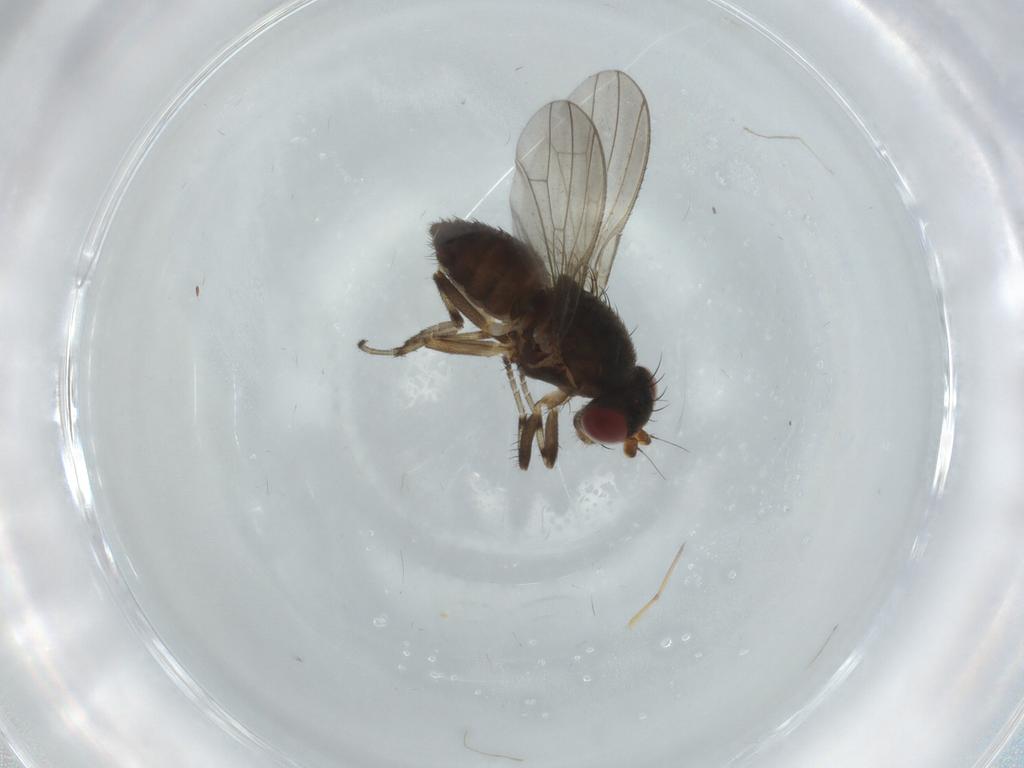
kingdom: Animalia
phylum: Arthropoda
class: Insecta
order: Diptera
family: Heleomyzidae
